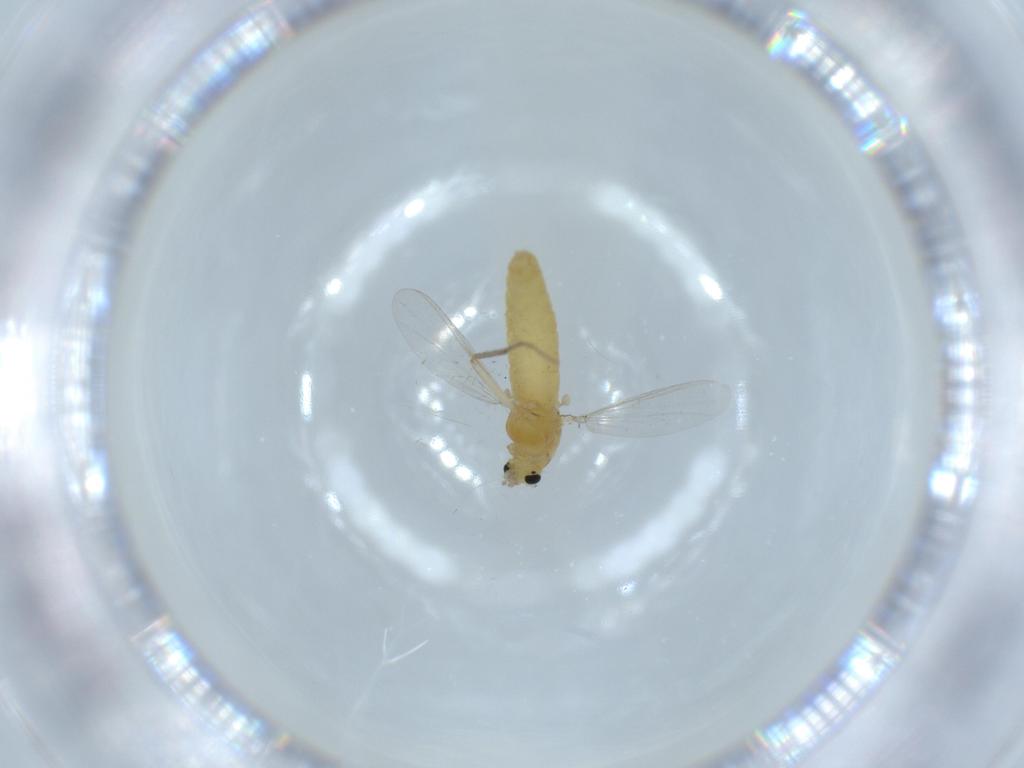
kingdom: Animalia
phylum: Arthropoda
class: Insecta
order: Diptera
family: Chironomidae
